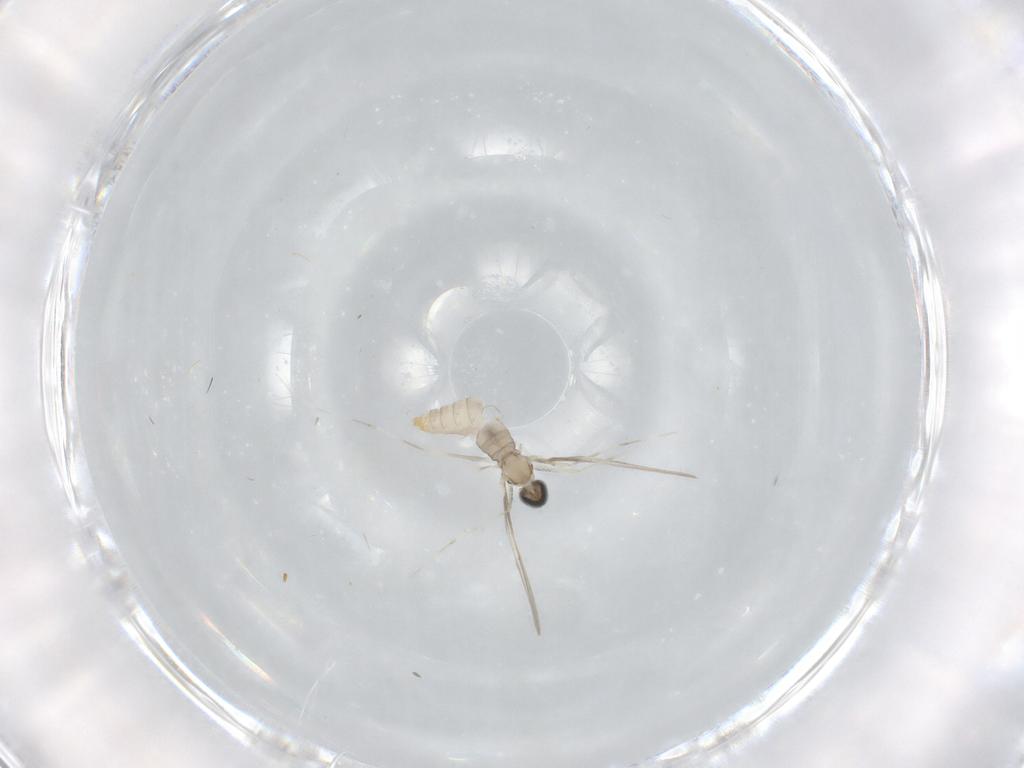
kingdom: Animalia
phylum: Arthropoda
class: Insecta
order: Diptera
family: Cecidomyiidae
